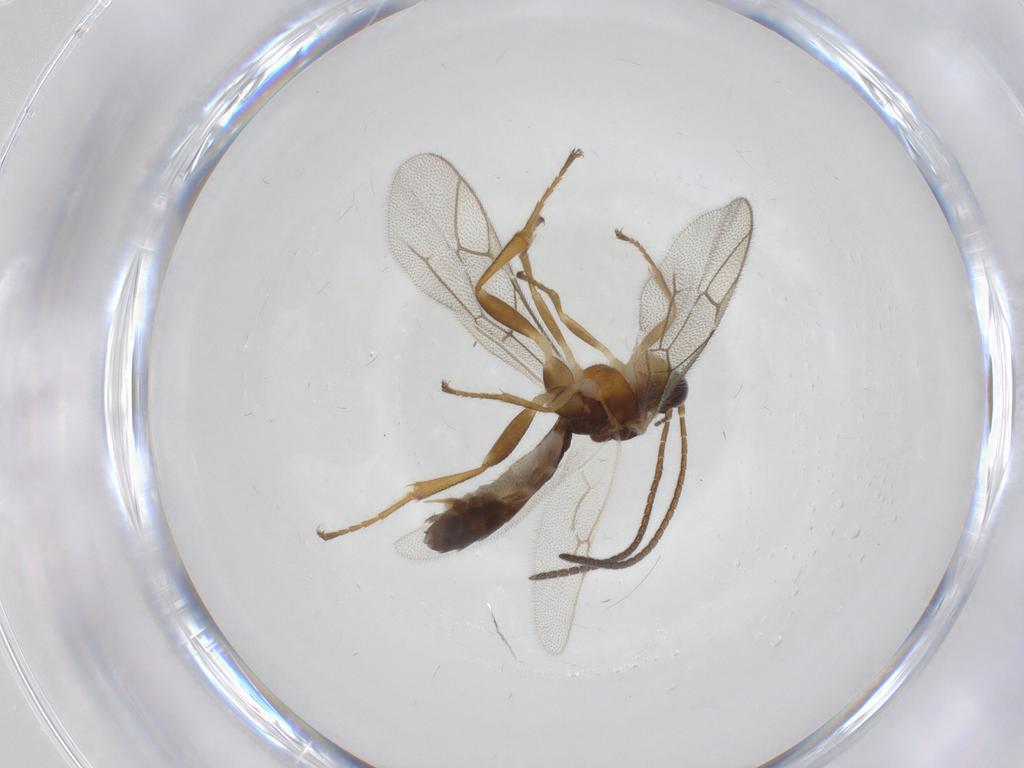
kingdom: Animalia
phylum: Arthropoda
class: Insecta
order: Hymenoptera
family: Ichneumonidae
